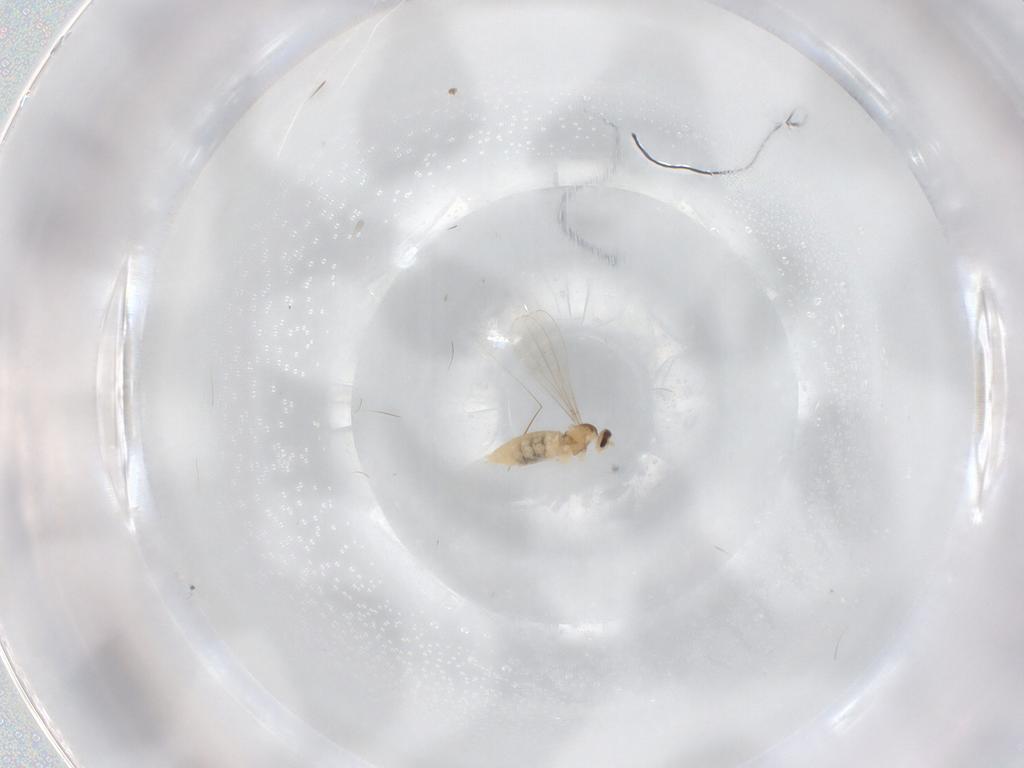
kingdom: Animalia
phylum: Arthropoda
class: Insecta
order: Diptera
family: Cecidomyiidae
